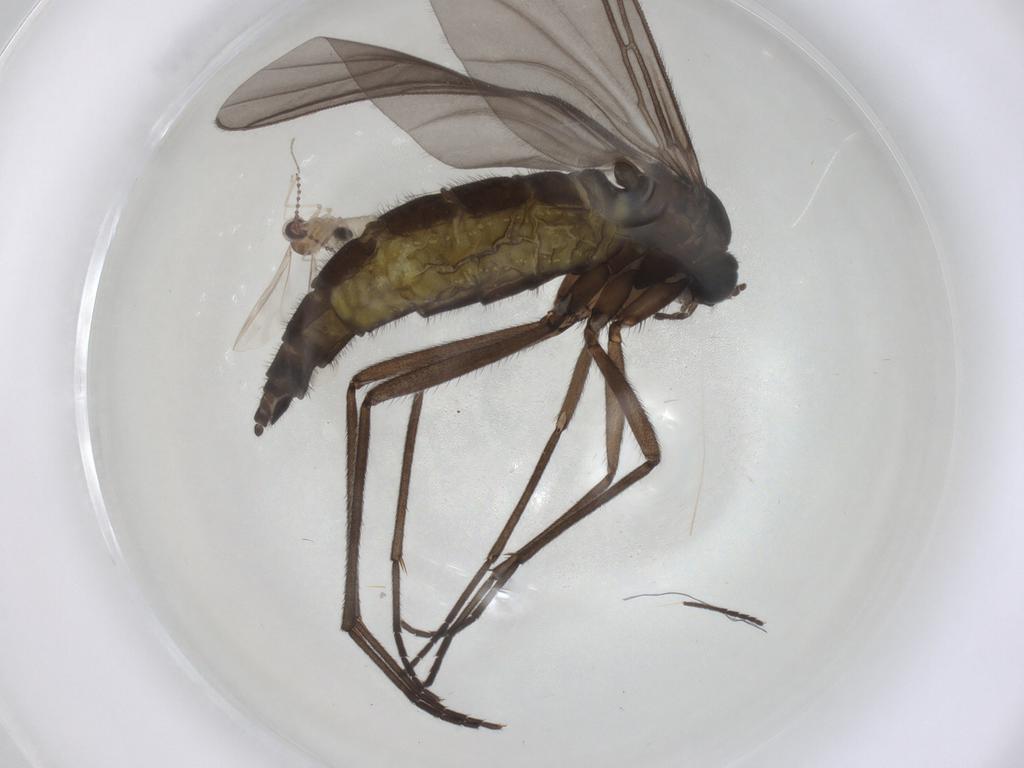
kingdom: Animalia
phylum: Arthropoda
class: Insecta
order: Diptera
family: Sciaridae
